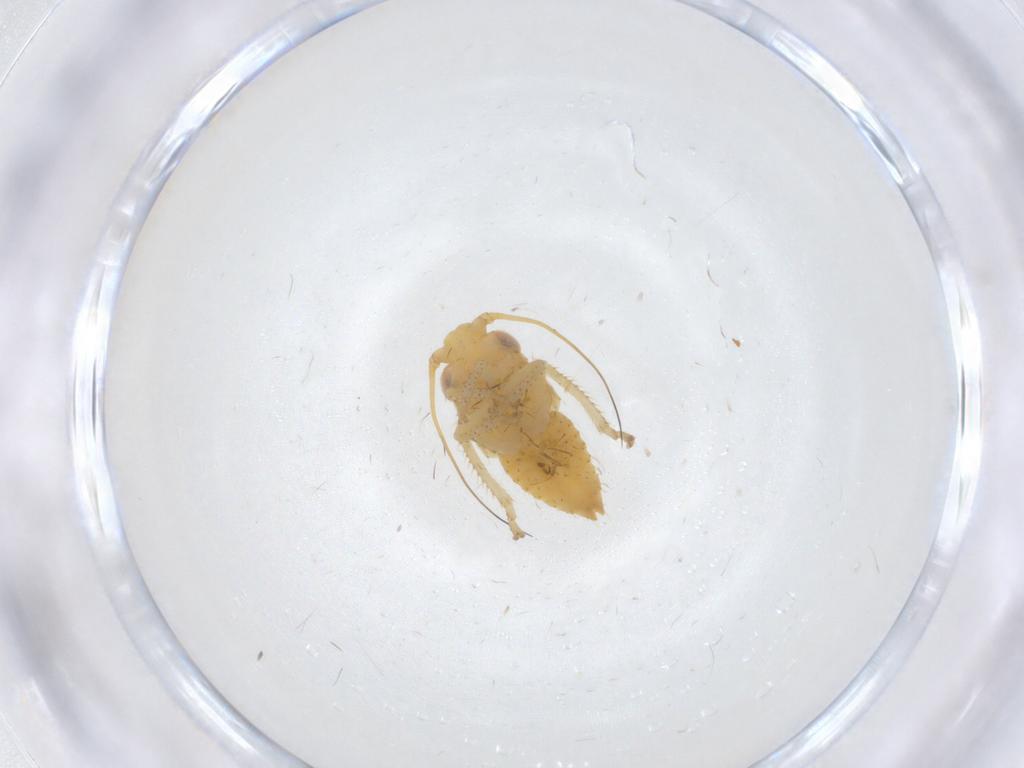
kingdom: Animalia
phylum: Arthropoda
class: Insecta
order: Hemiptera
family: Cicadellidae
